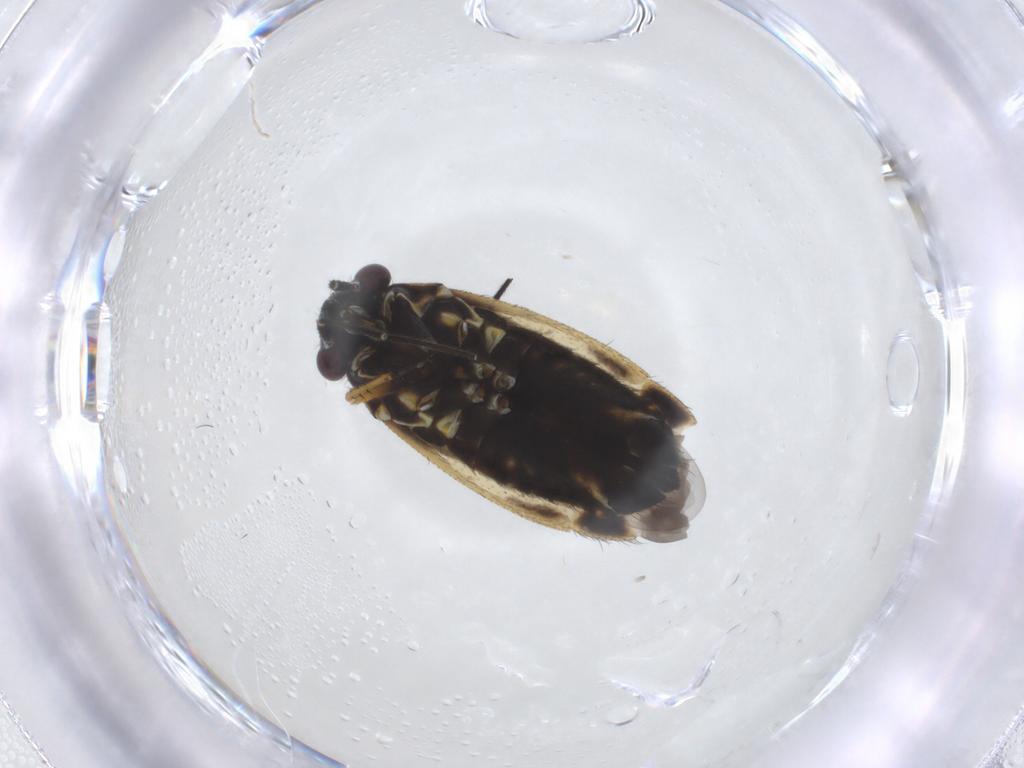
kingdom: Animalia
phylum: Arthropoda
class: Insecta
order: Hemiptera
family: Miridae
